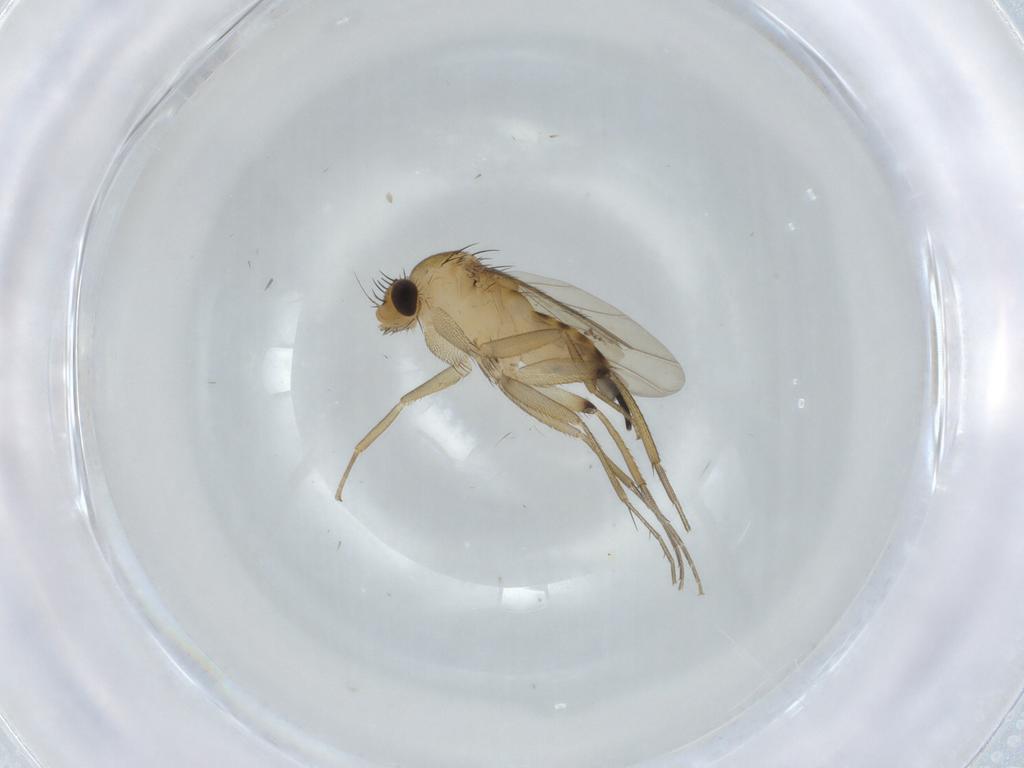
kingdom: Animalia
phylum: Arthropoda
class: Insecta
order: Diptera
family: Phoridae
